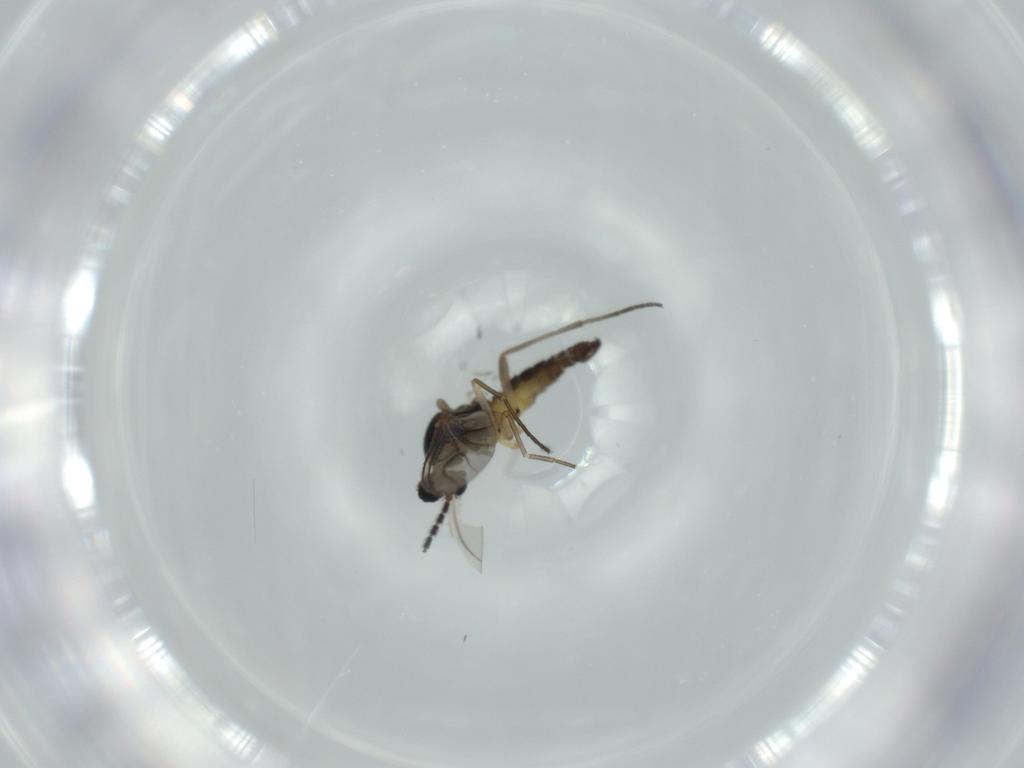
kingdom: Animalia
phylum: Arthropoda
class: Insecta
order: Diptera
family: Sciaridae
